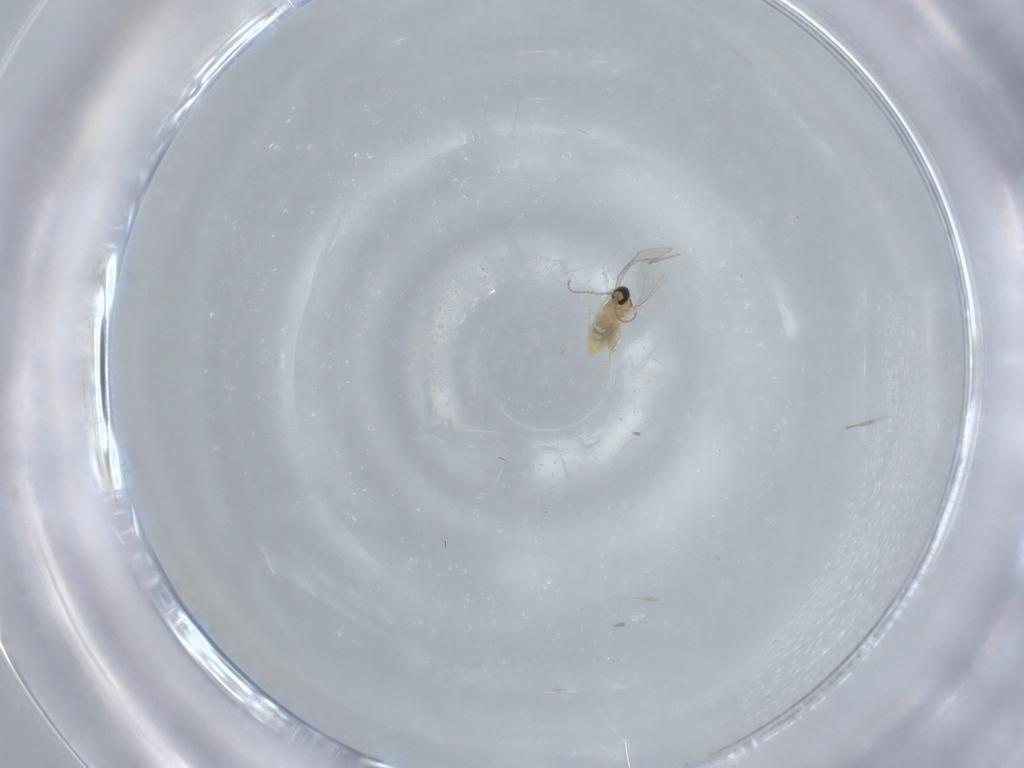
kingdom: Animalia
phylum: Arthropoda
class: Insecta
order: Diptera
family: Cecidomyiidae
